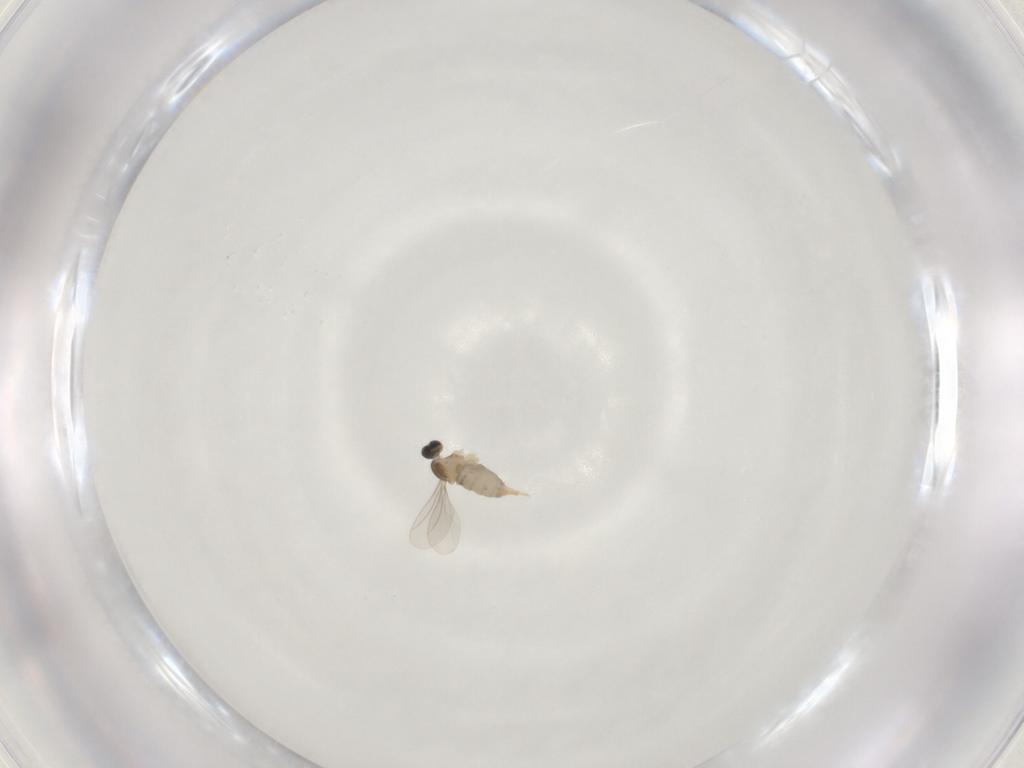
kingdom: Animalia
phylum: Arthropoda
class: Insecta
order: Diptera
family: Cecidomyiidae
